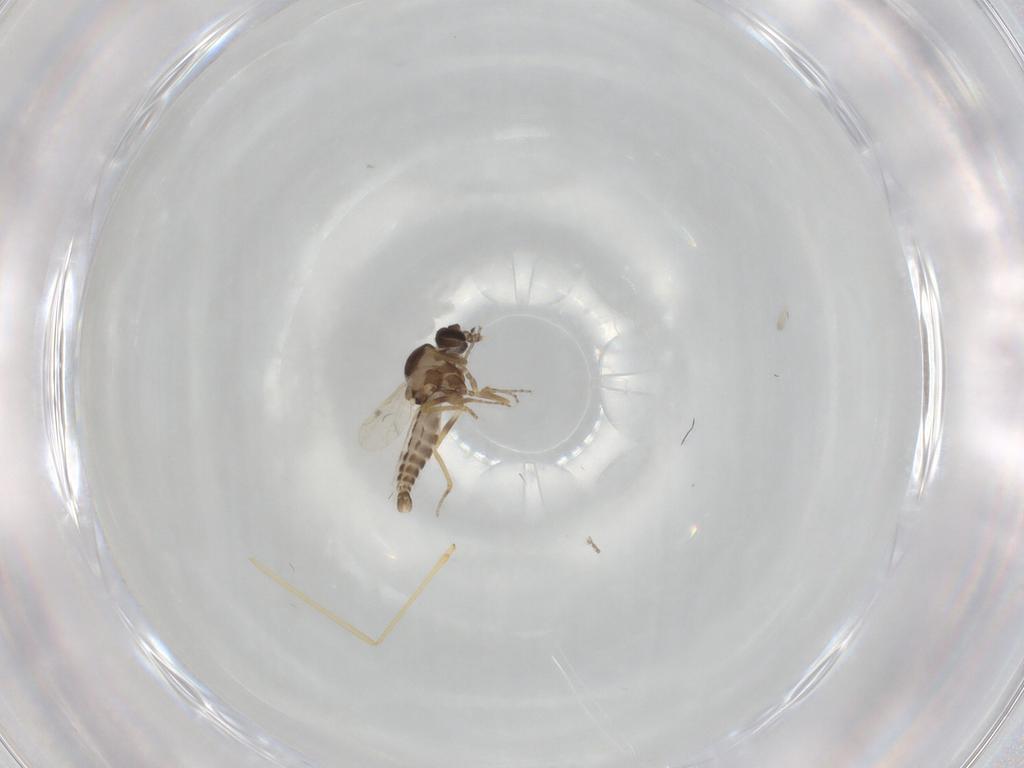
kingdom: Animalia
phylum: Arthropoda
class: Insecta
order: Diptera
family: Ceratopogonidae
